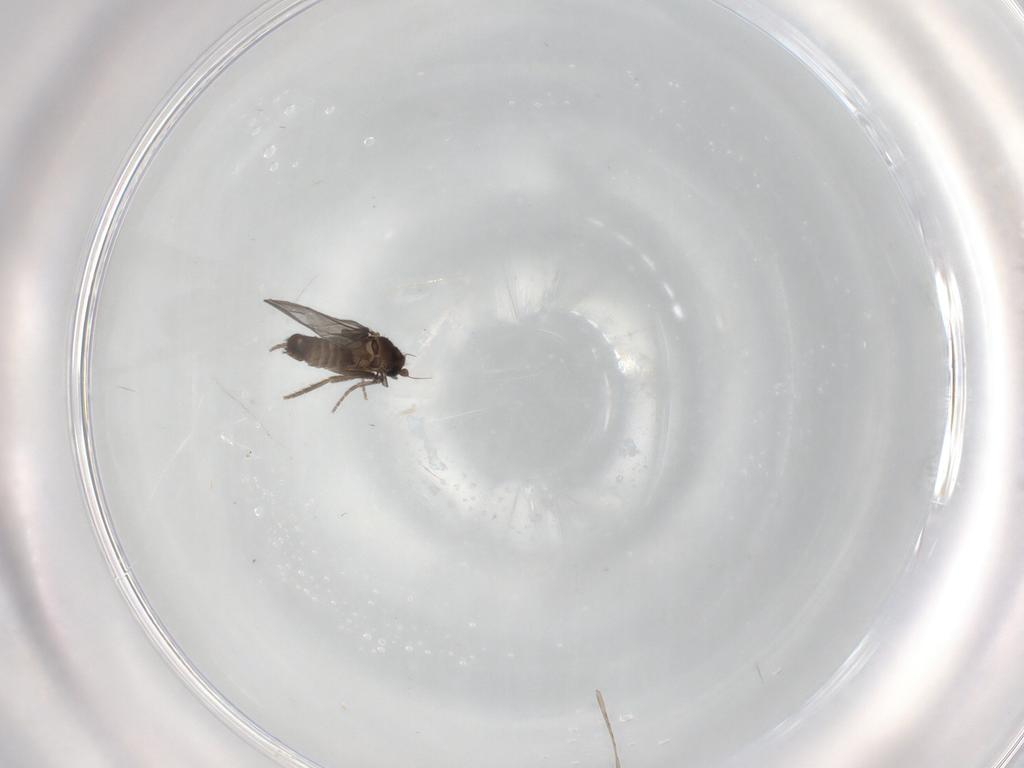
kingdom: Animalia
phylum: Arthropoda
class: Insecta
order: Diptera
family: Phoridae
